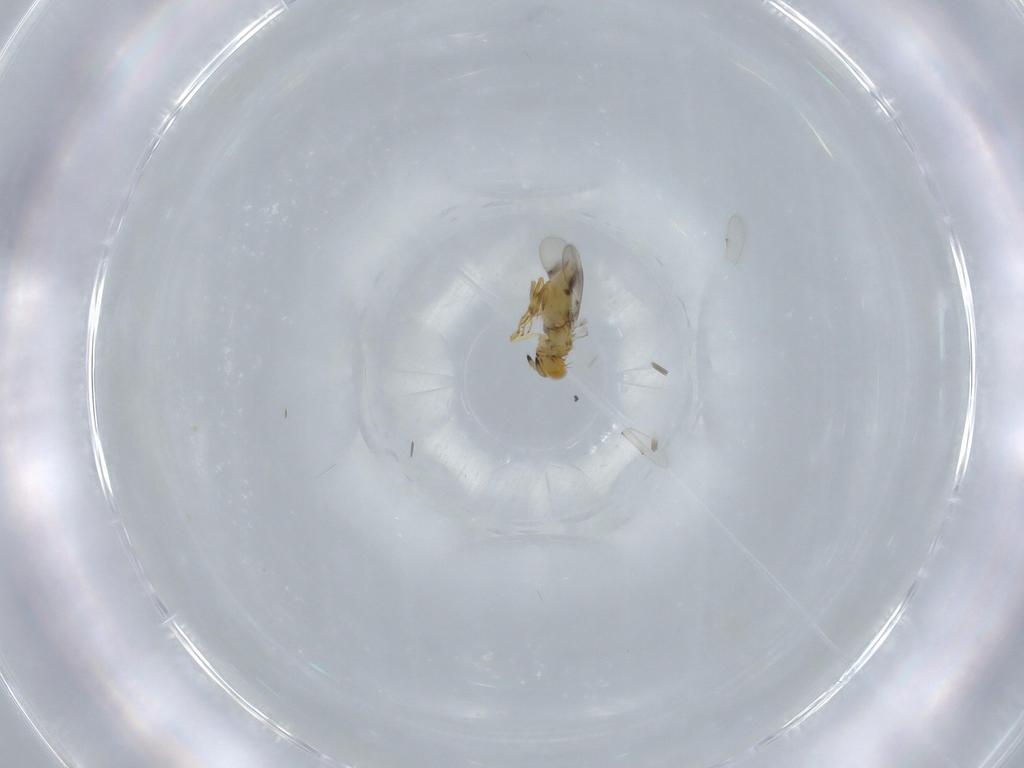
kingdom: Animalia
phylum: Arthropoda
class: Insecta
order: Hymenoptera
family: Aphelinidae
